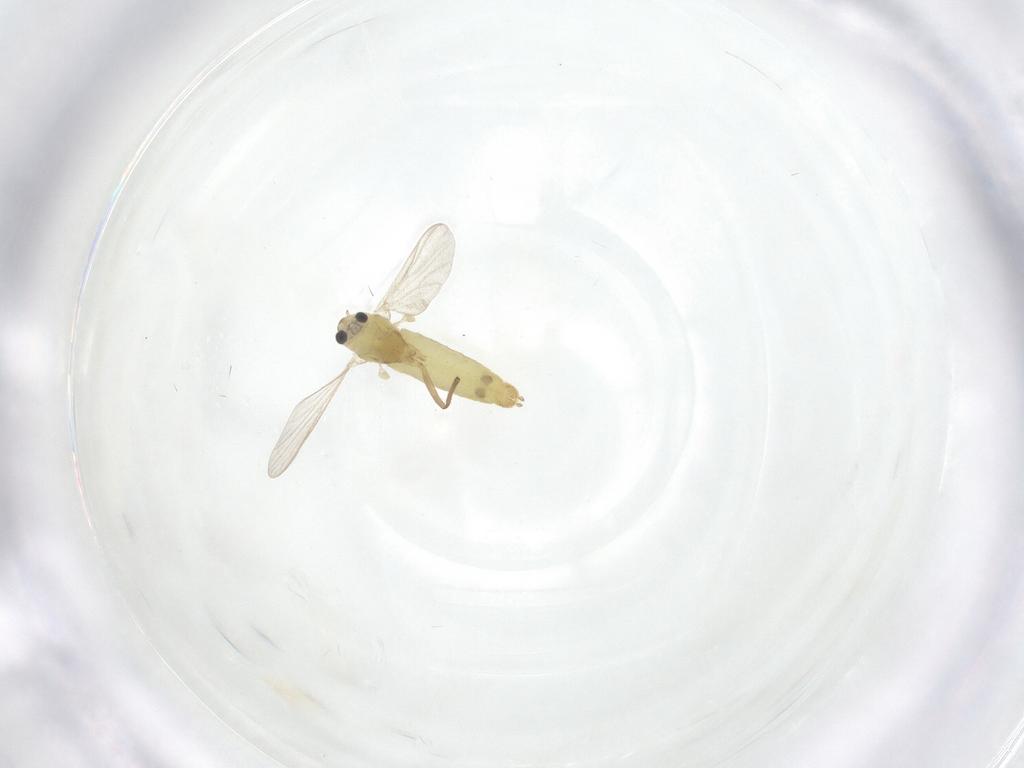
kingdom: Animalia
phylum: Arthropoda
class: Insecta
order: Diptera
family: Chironomidae
